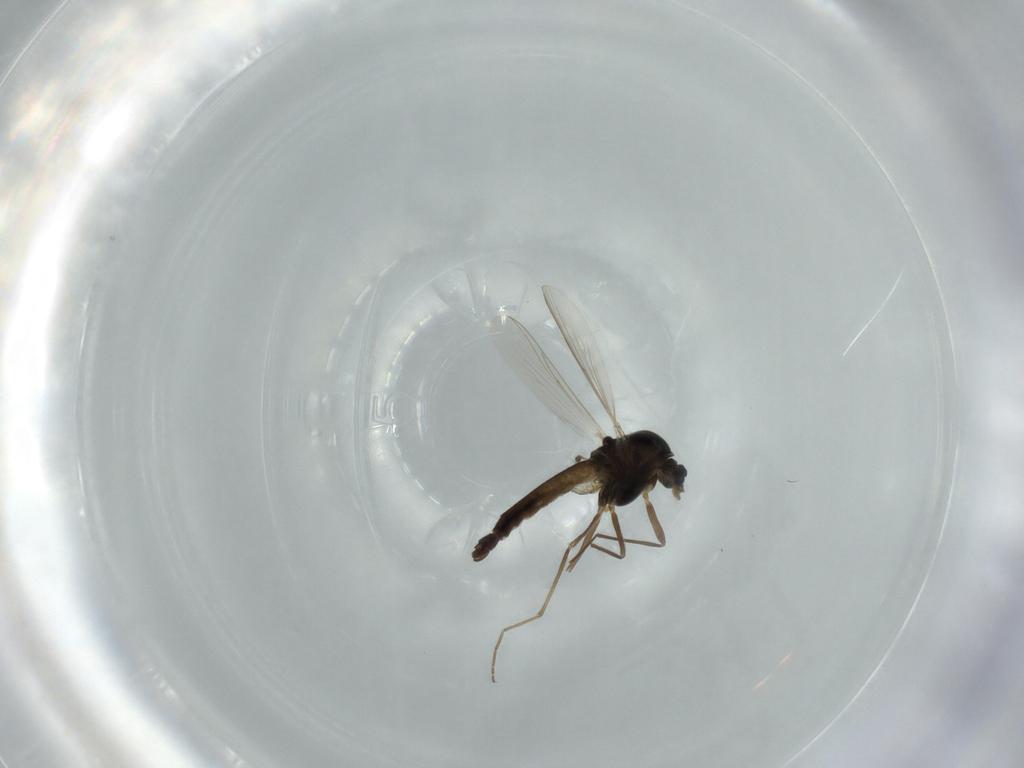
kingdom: Animalia
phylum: Arthropoda
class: Insecta
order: Diptera
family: Chironomidae
